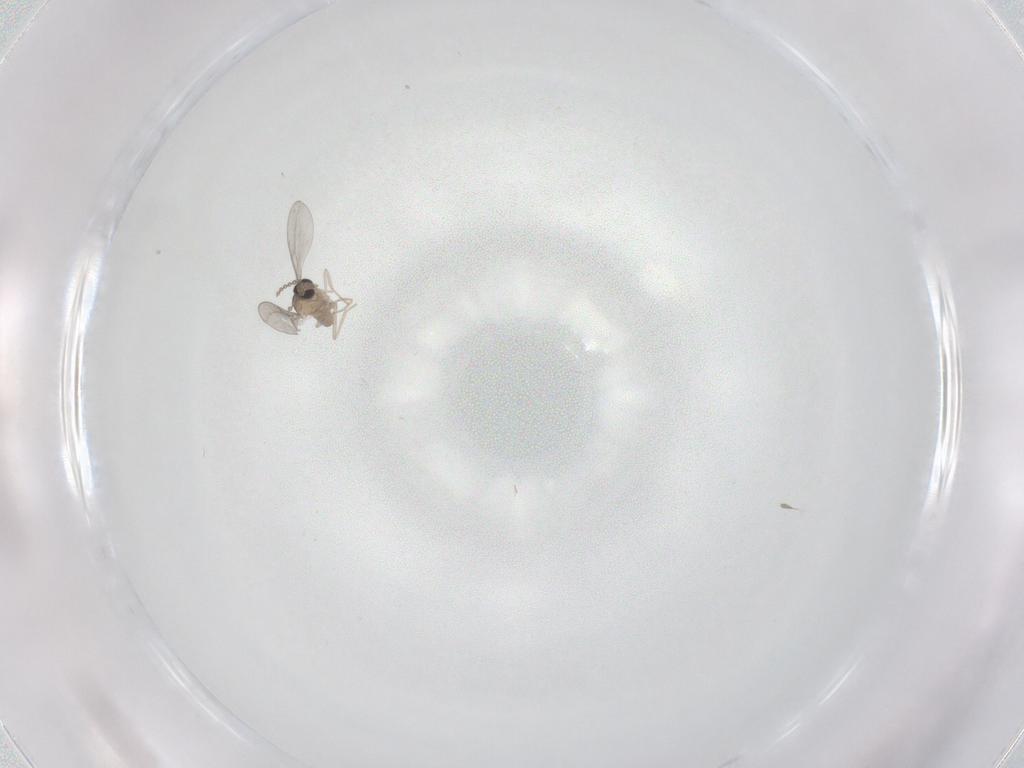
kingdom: Animalia
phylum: Arthropoda
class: Insecta
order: Diptera
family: Cecidomyiidae
